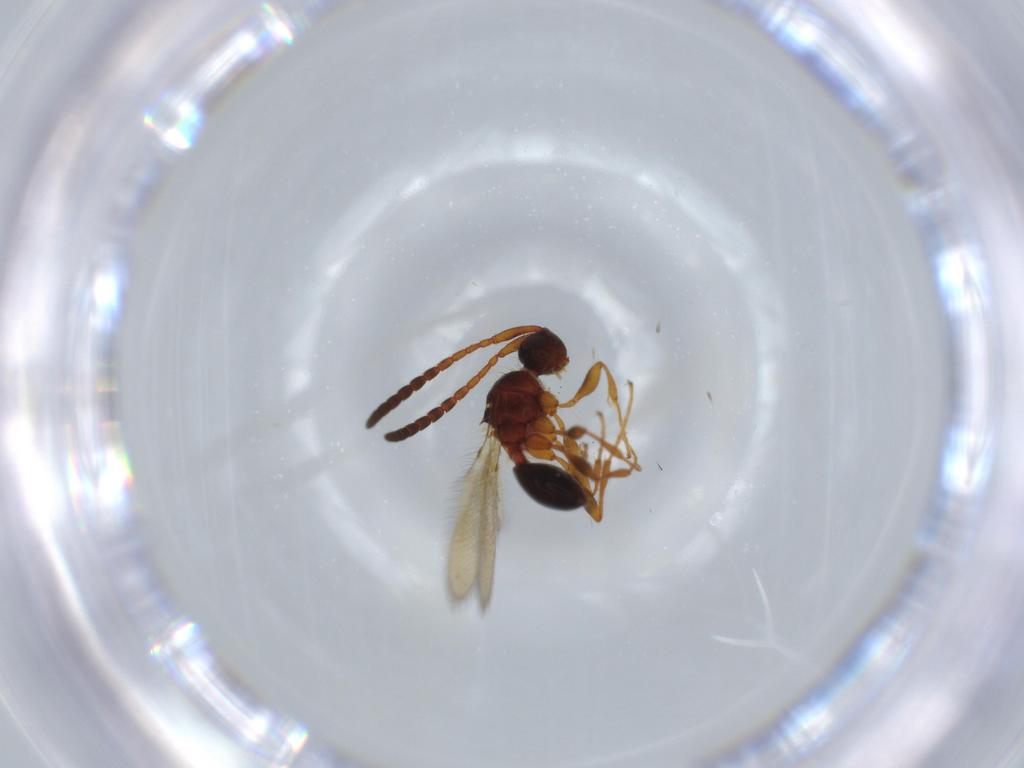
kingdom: Animalia
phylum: Arthropoda
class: Insecta
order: Hymenoptera
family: Diapriidae
